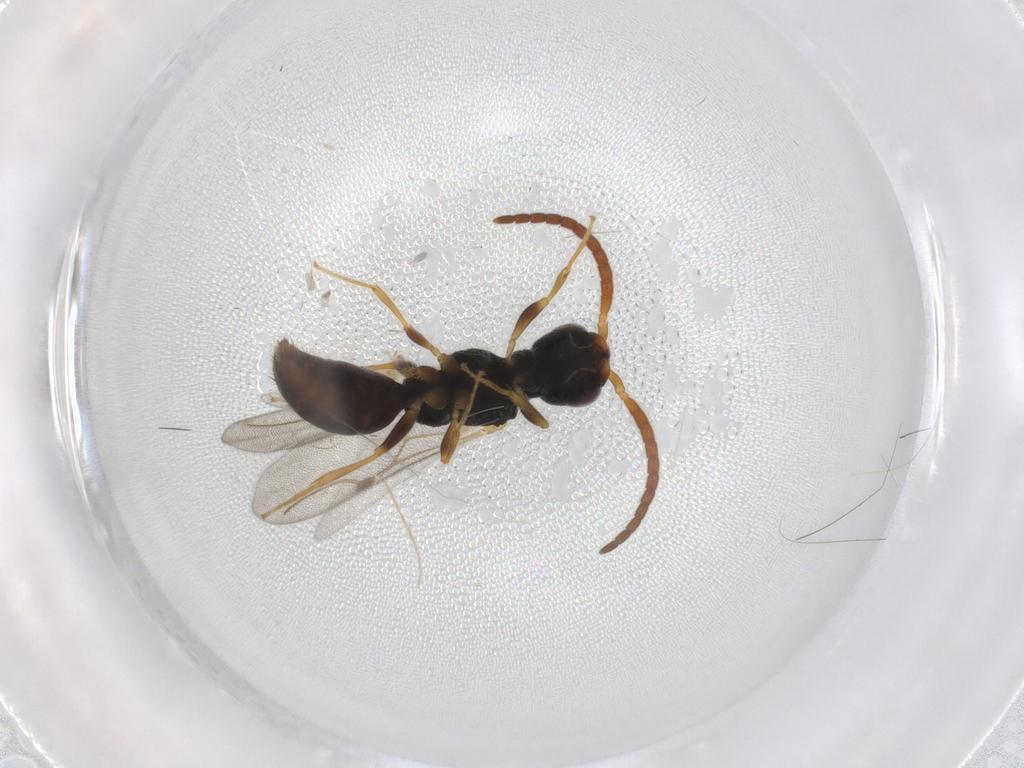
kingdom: Animalia
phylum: Arthropoda
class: Insecta
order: Hymenoptera
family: Bethylidae
